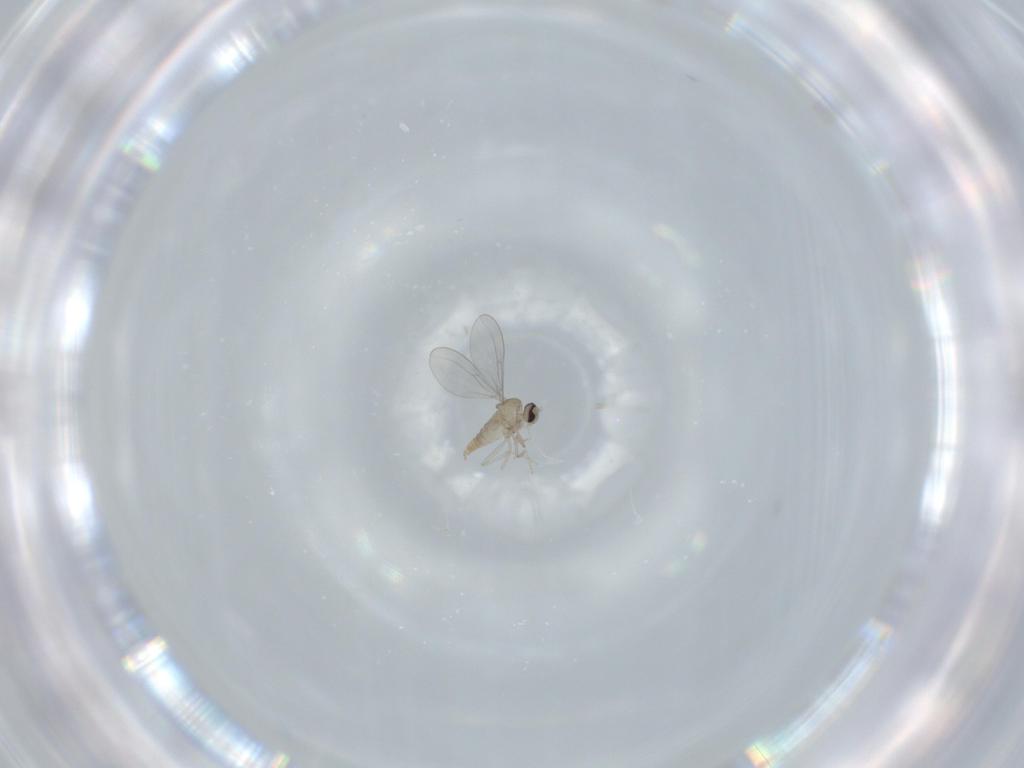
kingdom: Animalia
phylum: Arthropoda
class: Insecta
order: Diptera
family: Cecidomyiidae
